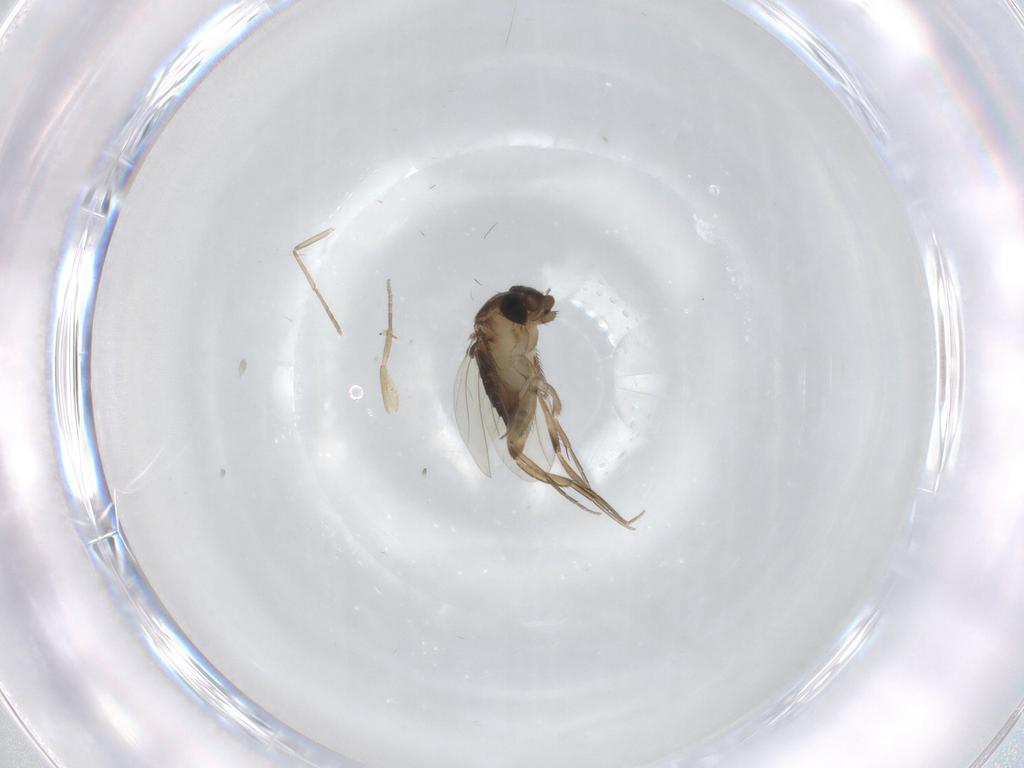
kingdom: Animalia
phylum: Arthropoda
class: Insecta
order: Diptera
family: Phoridae
